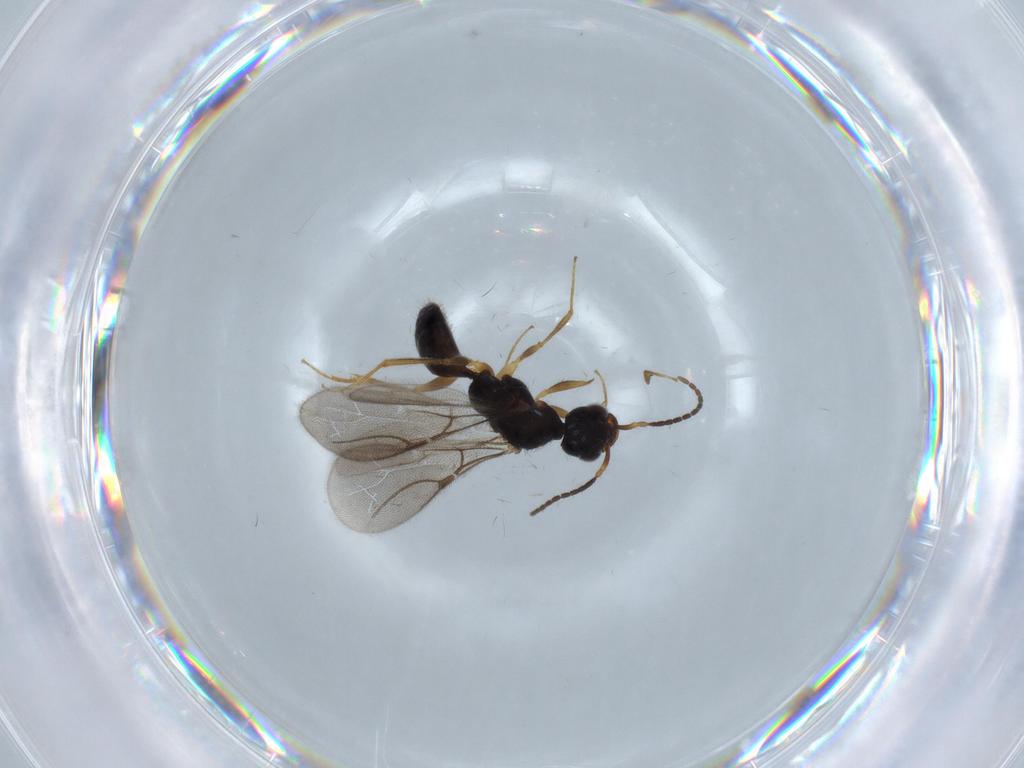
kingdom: Animalia
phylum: Arthropoda
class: Insecta
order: Hymenoptera
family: Bethylidae
